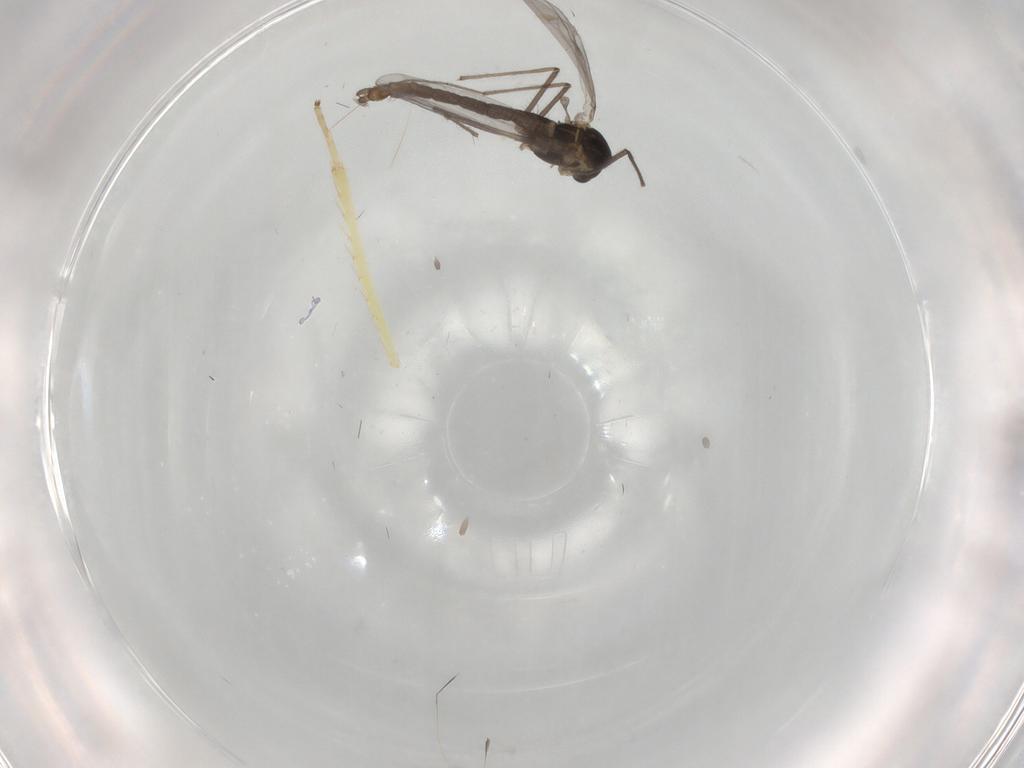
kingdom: Animalia
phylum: Arthropoda
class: Insecta
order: Diptera
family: Chironomidae
